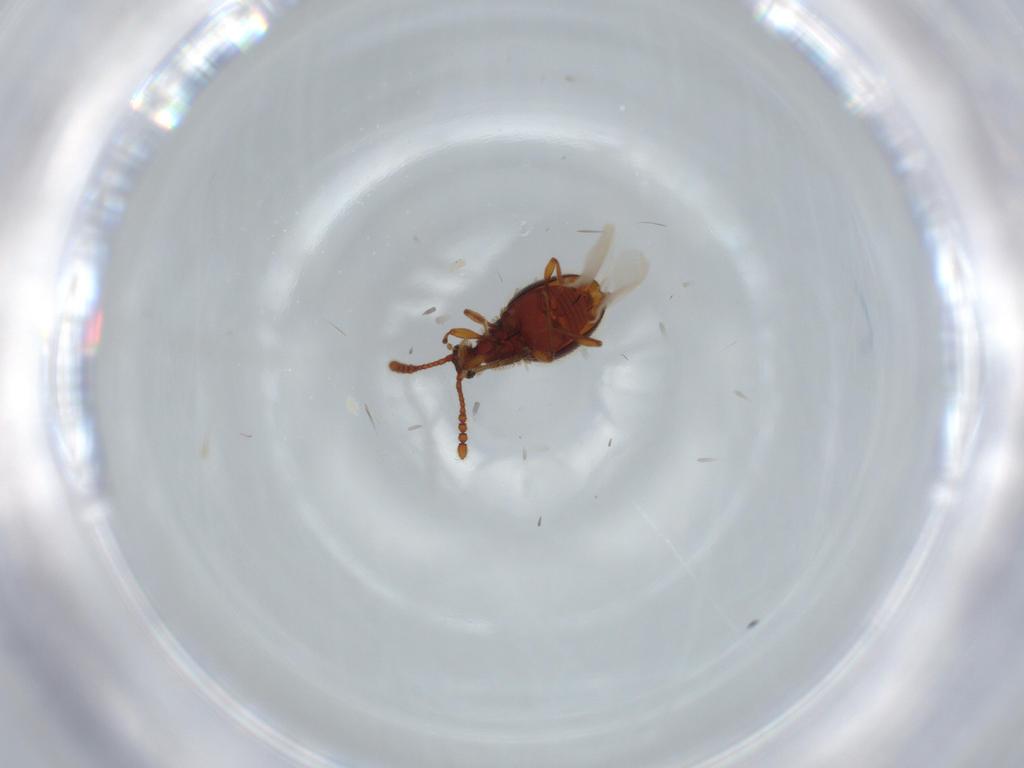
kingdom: Animalia
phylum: Arthropoda
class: Insecta
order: Coleoptera
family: Staphylinidae
